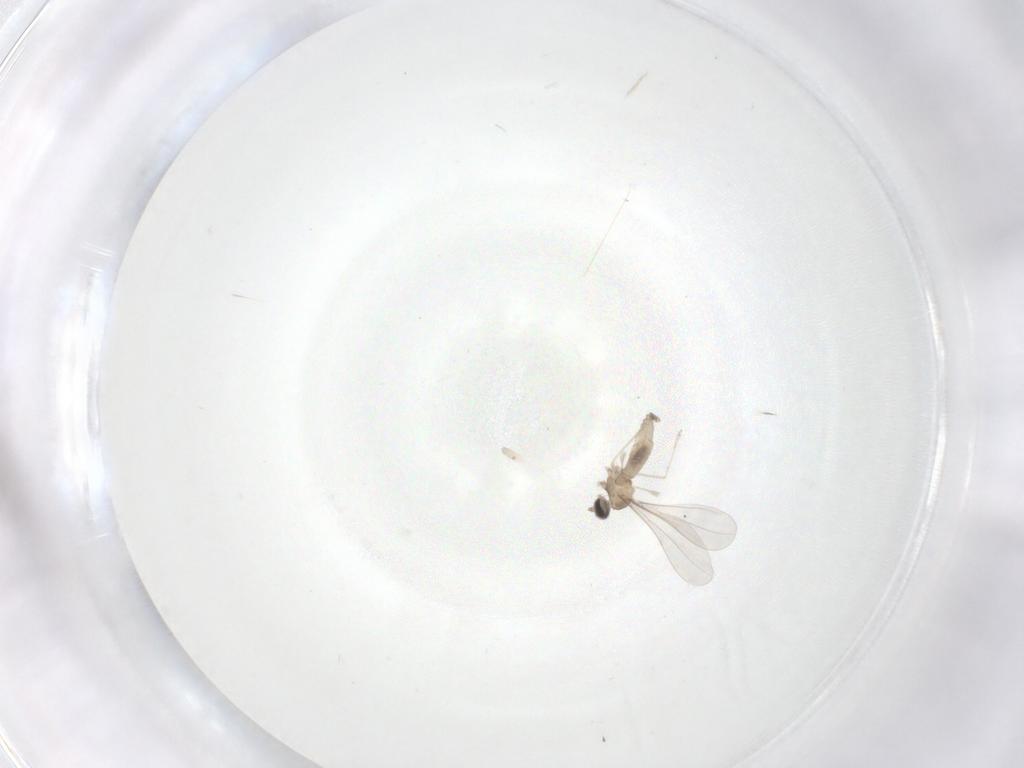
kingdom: Animalia
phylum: Arthropoda
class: Insecta
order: Diptera
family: Cecidomyiidae
